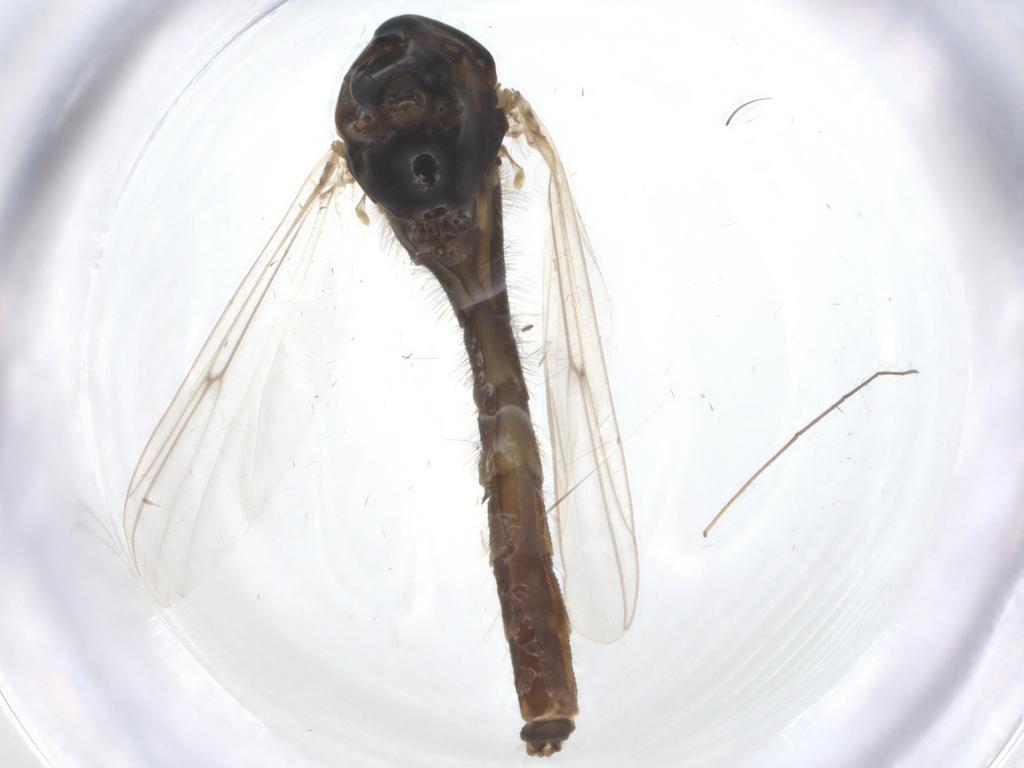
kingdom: Animalia
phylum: Arthropoda
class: Insecta
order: Diptera
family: Chironomidae
